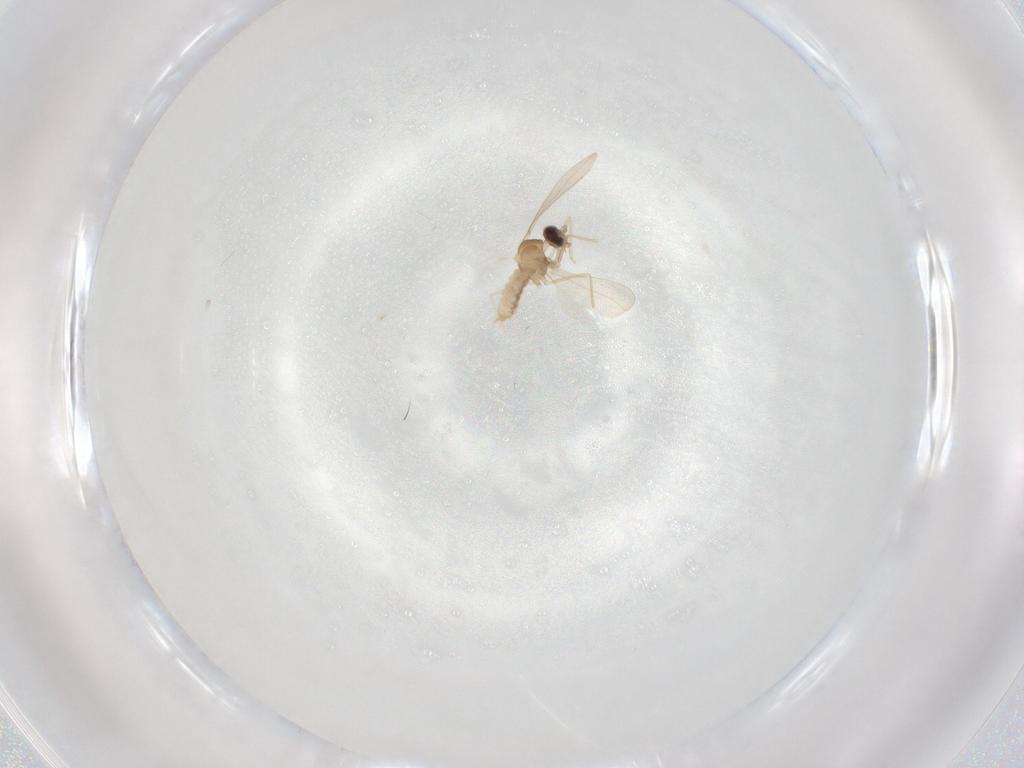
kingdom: Animalia
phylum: Arthropoda
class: Insecta
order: Diptera
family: Cecidomyiidae
